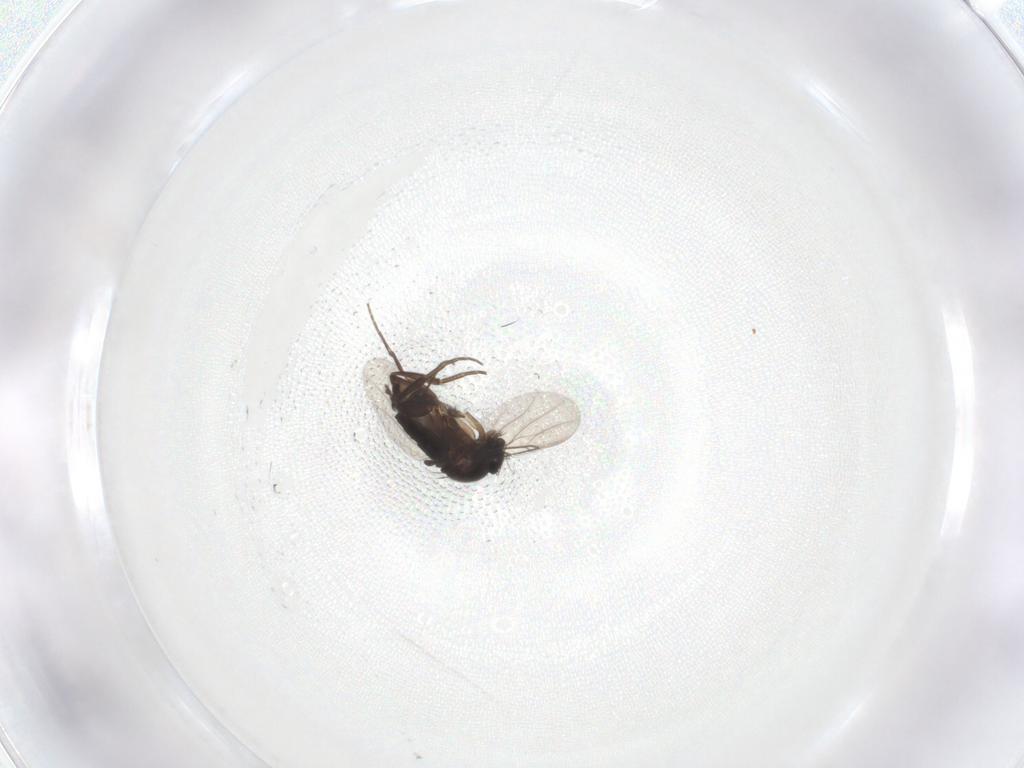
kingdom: Animalia
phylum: Arthropoda
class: Insecta
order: Diptera
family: Phoridae
